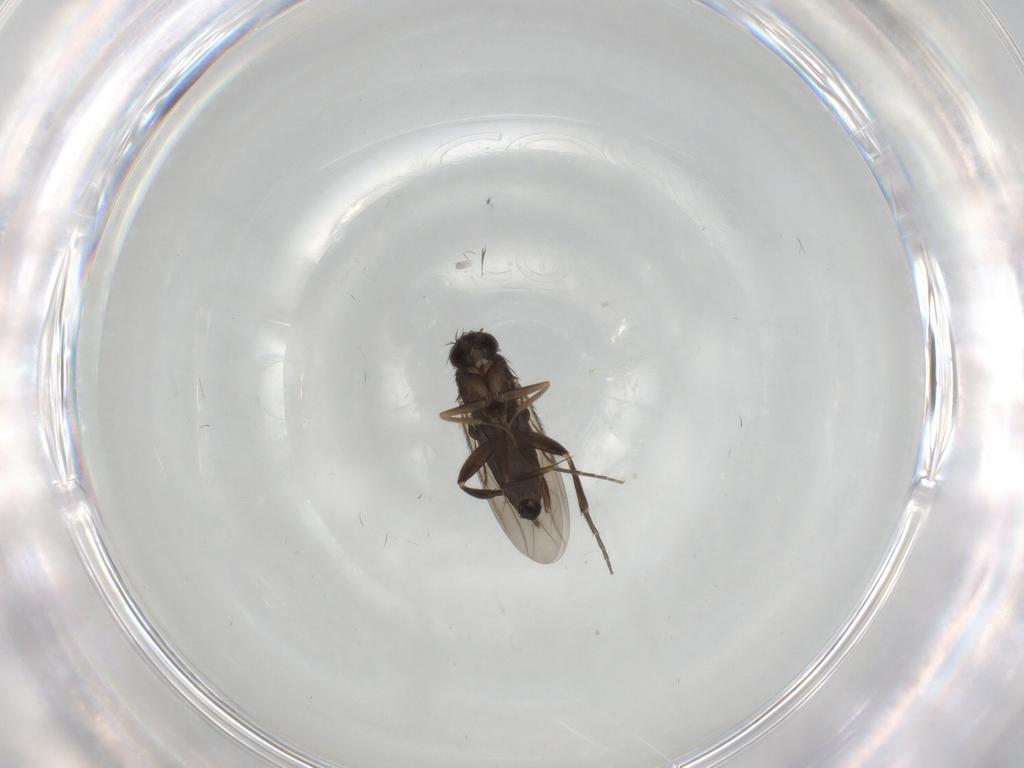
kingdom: Animalia
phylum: Arthropoda
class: Insecta
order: Diptera
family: Phoridae
